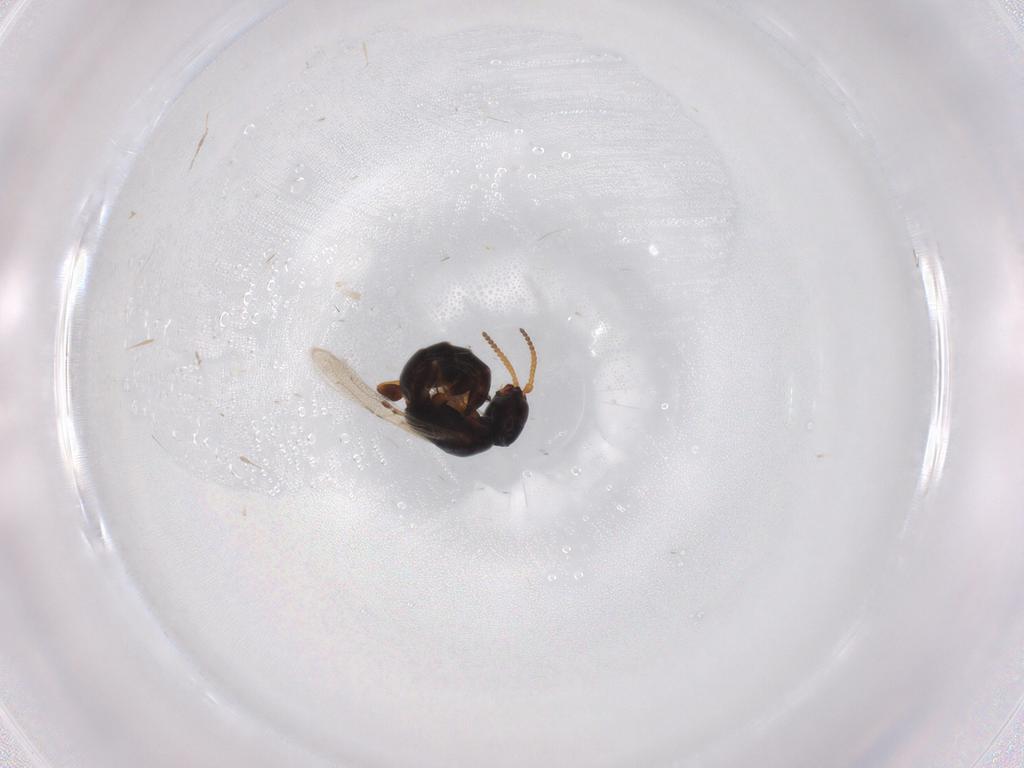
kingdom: Animalia
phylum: Arthropoda
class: Insecta
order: Hymenoptera
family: Bethylidae
